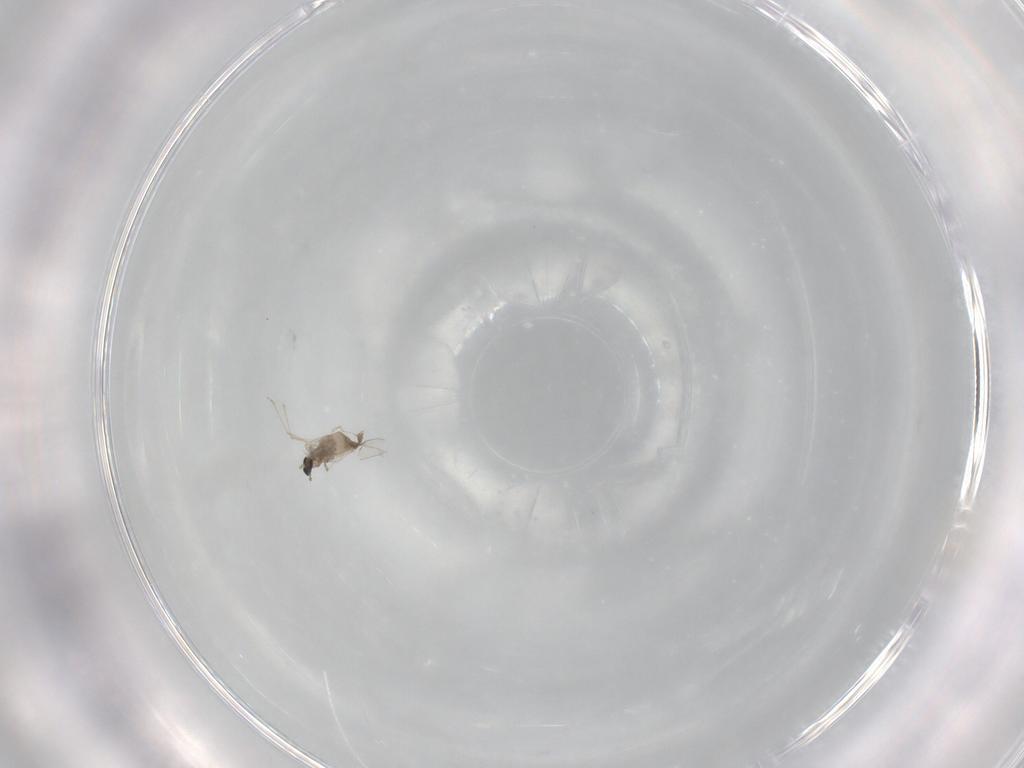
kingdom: Animalia
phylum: Arthropoda
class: Insecta
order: Diptera
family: Cecidomyiidae
